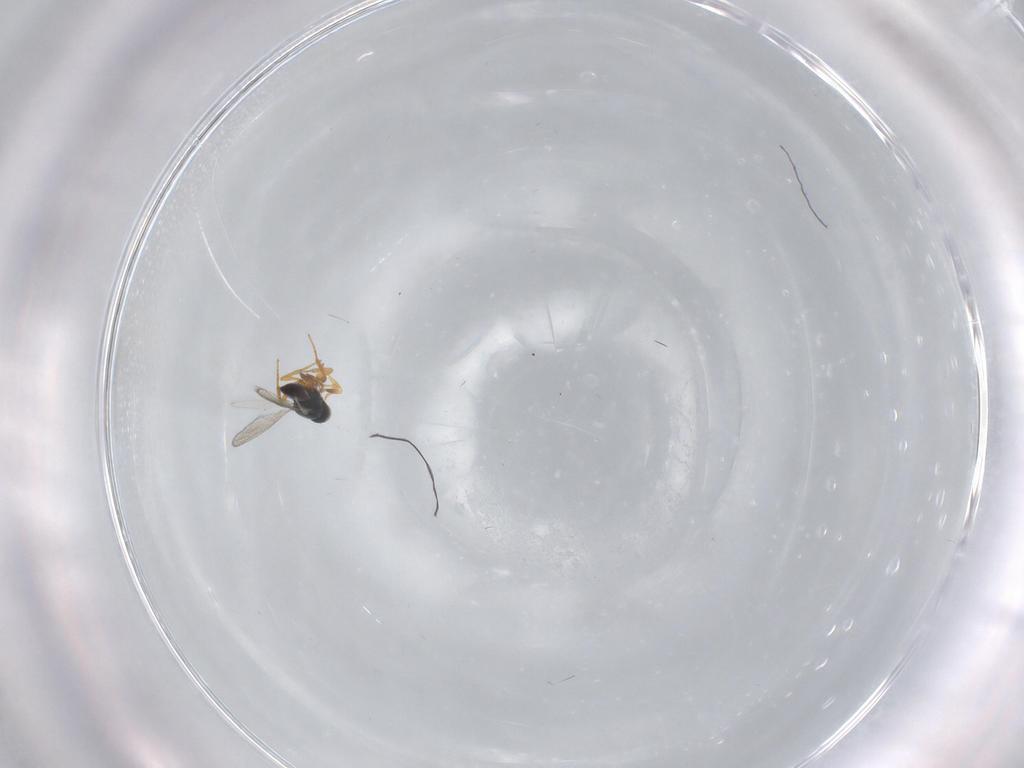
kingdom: Animalia
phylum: Arthropoda
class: Insecta
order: Hymenoptera
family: Platygastridae
